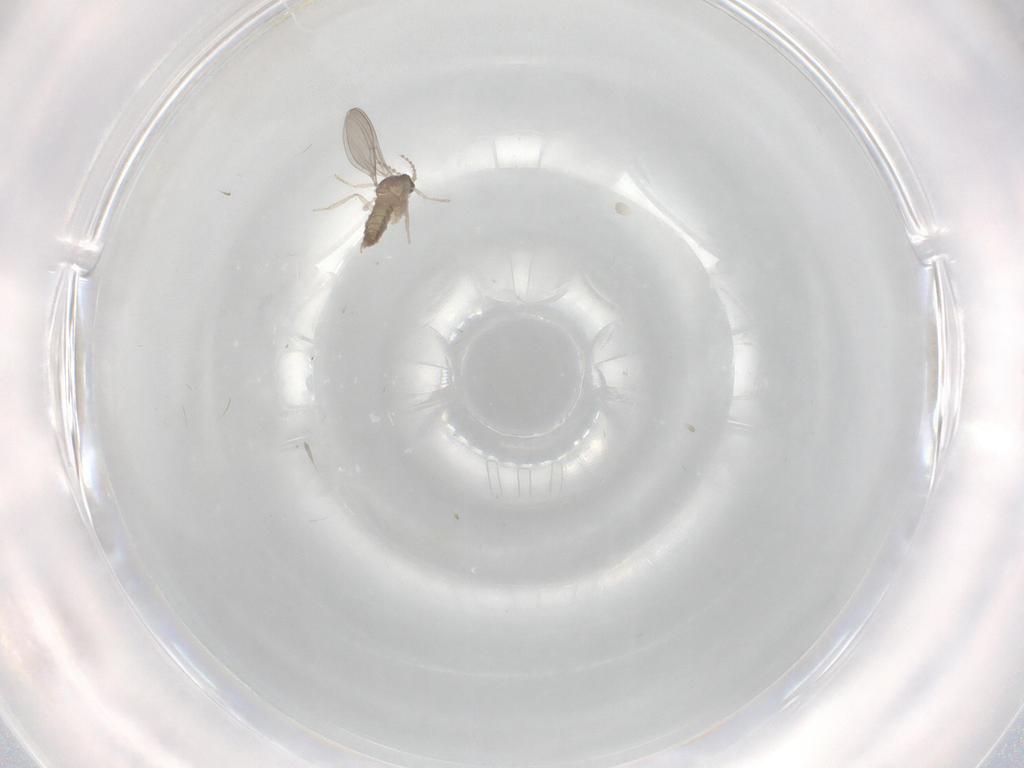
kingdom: Animalia
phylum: Arthropoda
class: Insecta
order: Diptera
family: Cecidomyiidae
